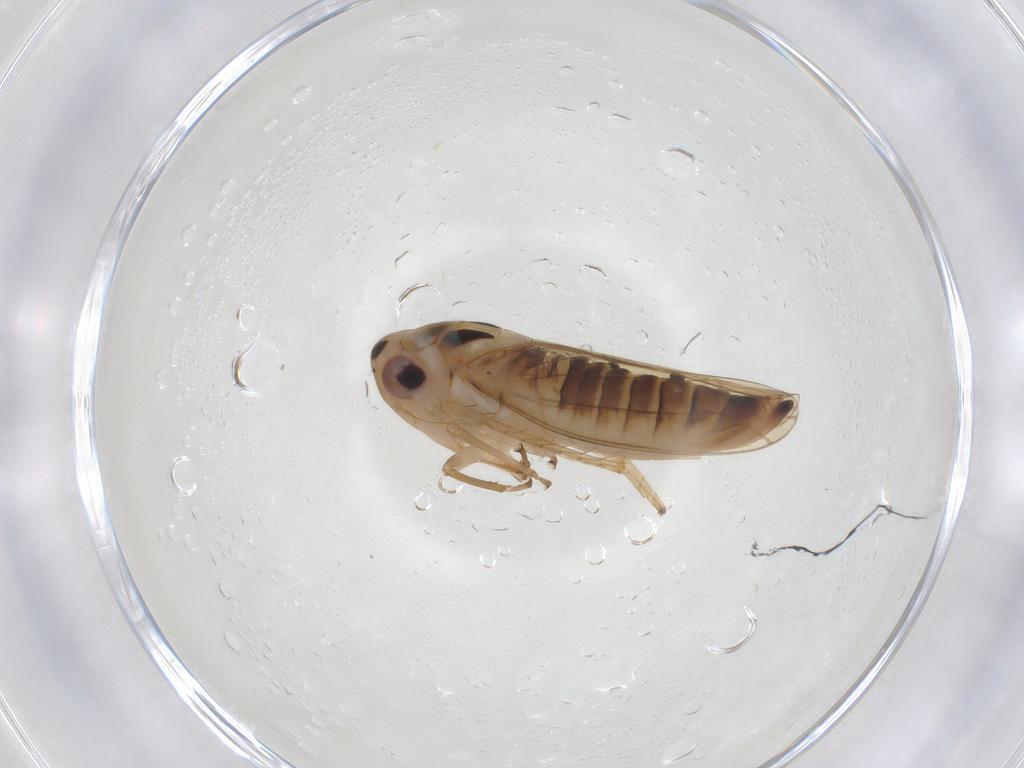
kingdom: Animalia
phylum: Arthropoda
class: Insecta
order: Hemiptera
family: Cicadellidae
